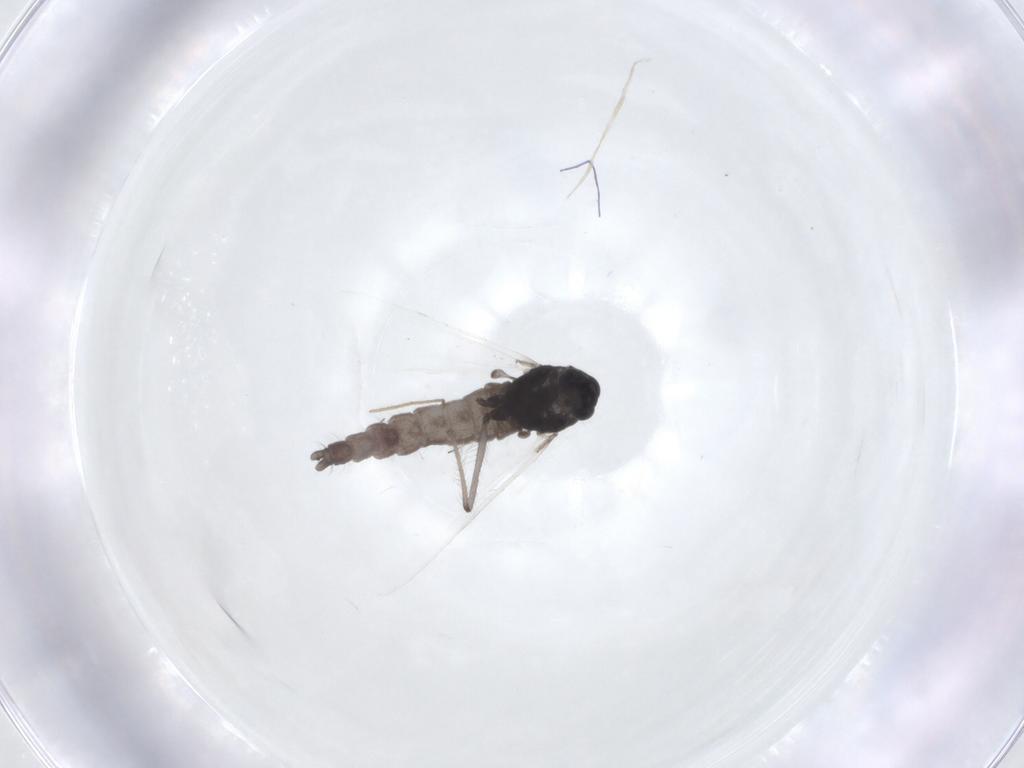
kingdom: Animalia
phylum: Arthropoda
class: Insecta
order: Diptera
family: Chironomidae
